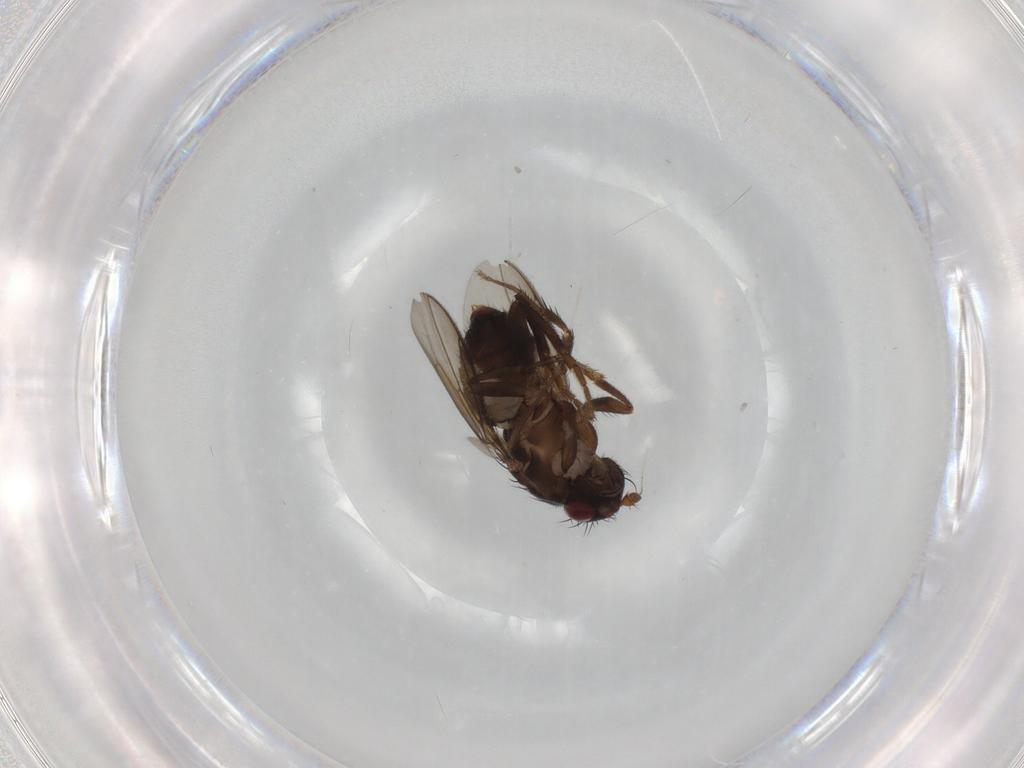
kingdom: Animalia
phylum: Arthropoda
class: Insecta
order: Diptera
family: Sphaeroceridae
